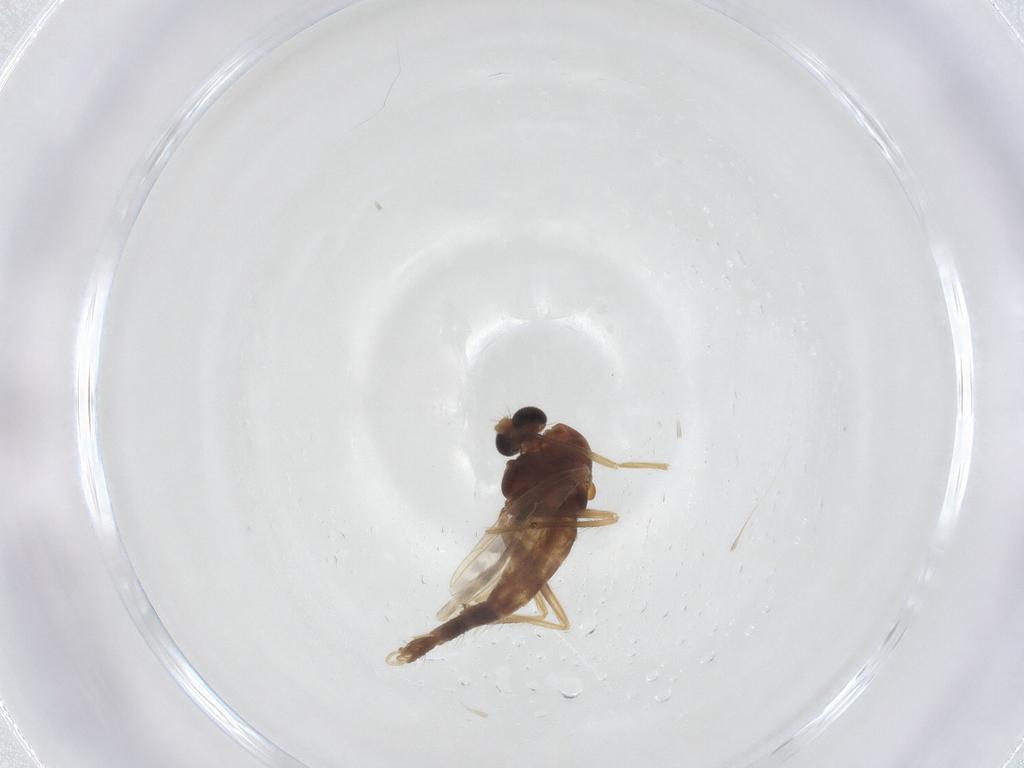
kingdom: Animalia
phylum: Arthropoda
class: Insecta
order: Diptera
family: Chironomidae
